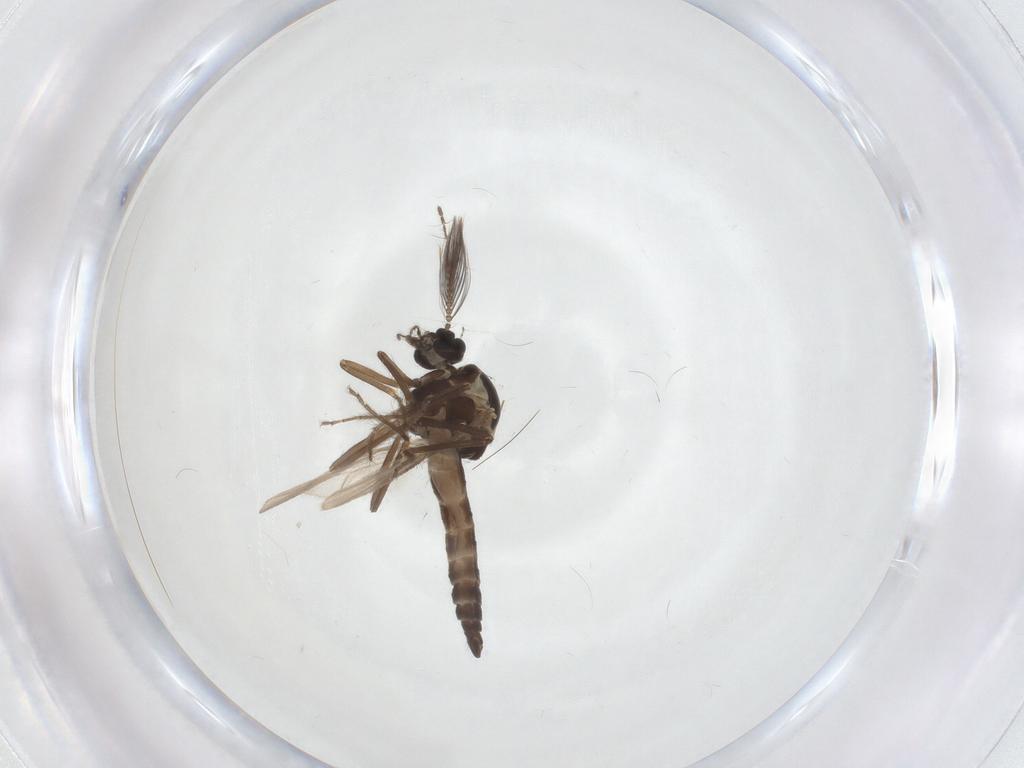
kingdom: Animalia
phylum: Arthropoda
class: Insecta
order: Diptera
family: Ceratopogonidae
